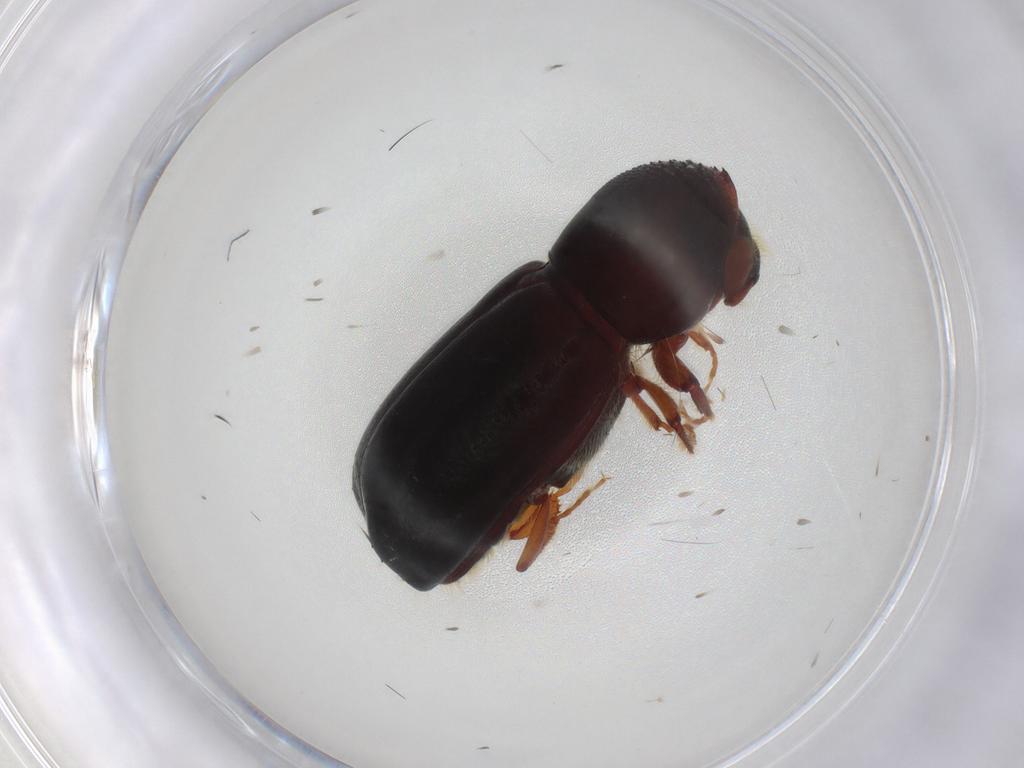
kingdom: Animalia
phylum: Arthropoda
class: Insecta
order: Coleoptera
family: Curculionidae
